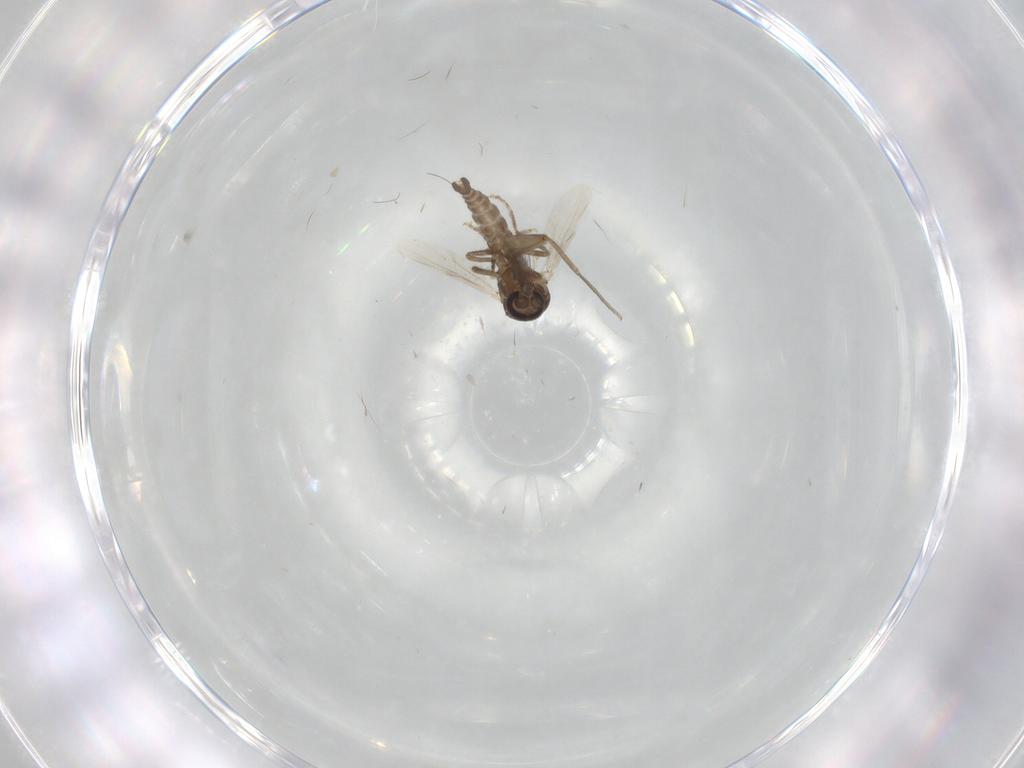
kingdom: Animalia
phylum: Arthropoda
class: Insecta
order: Diptera
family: Ceratopogonidae
